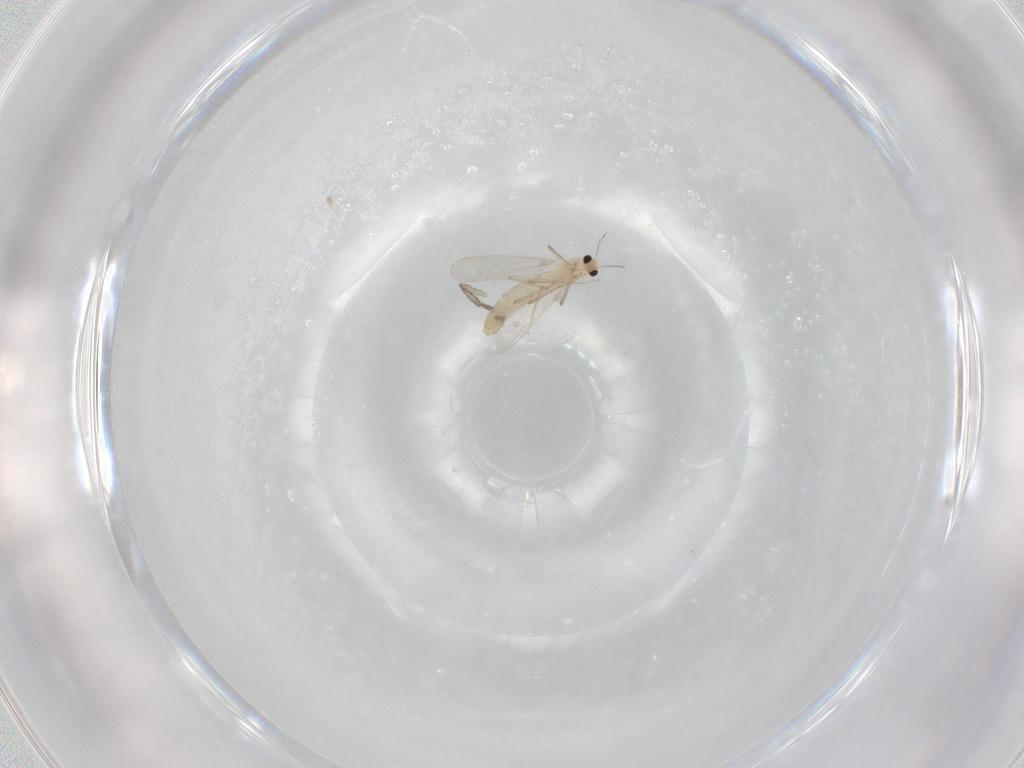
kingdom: Animalia
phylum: Arthropoda
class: Insecta
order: Diptera
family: Chironomidae
